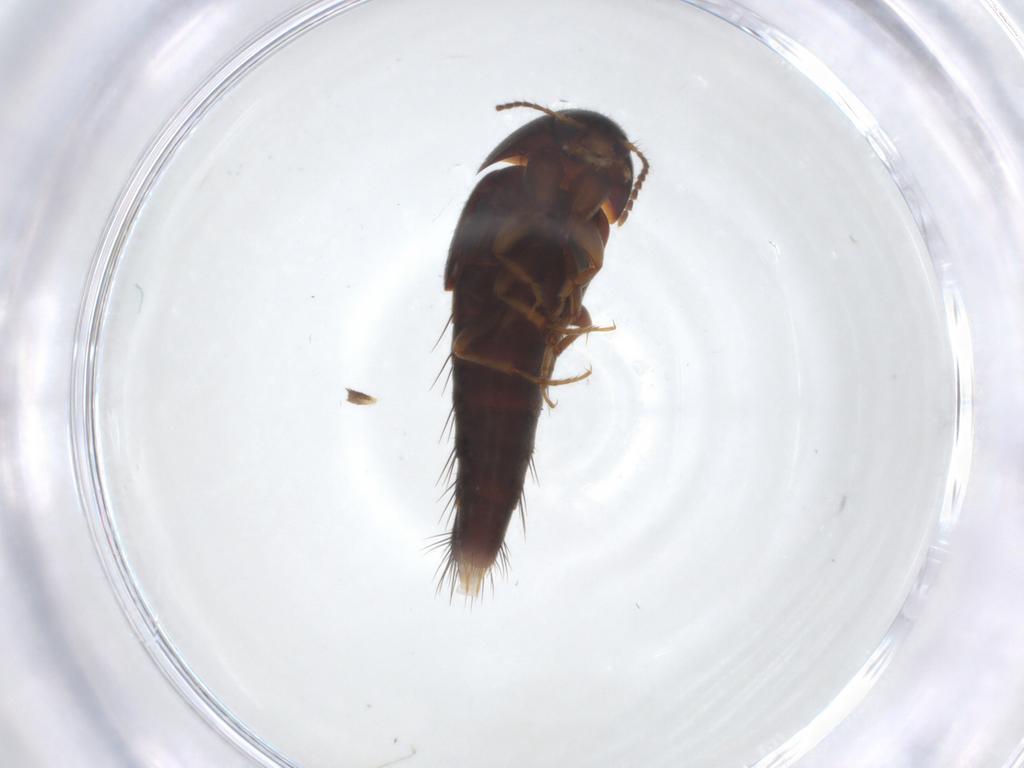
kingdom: Animalia
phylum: Arthropoda
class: Insecta
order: Coleoptera
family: Staphylinidae
